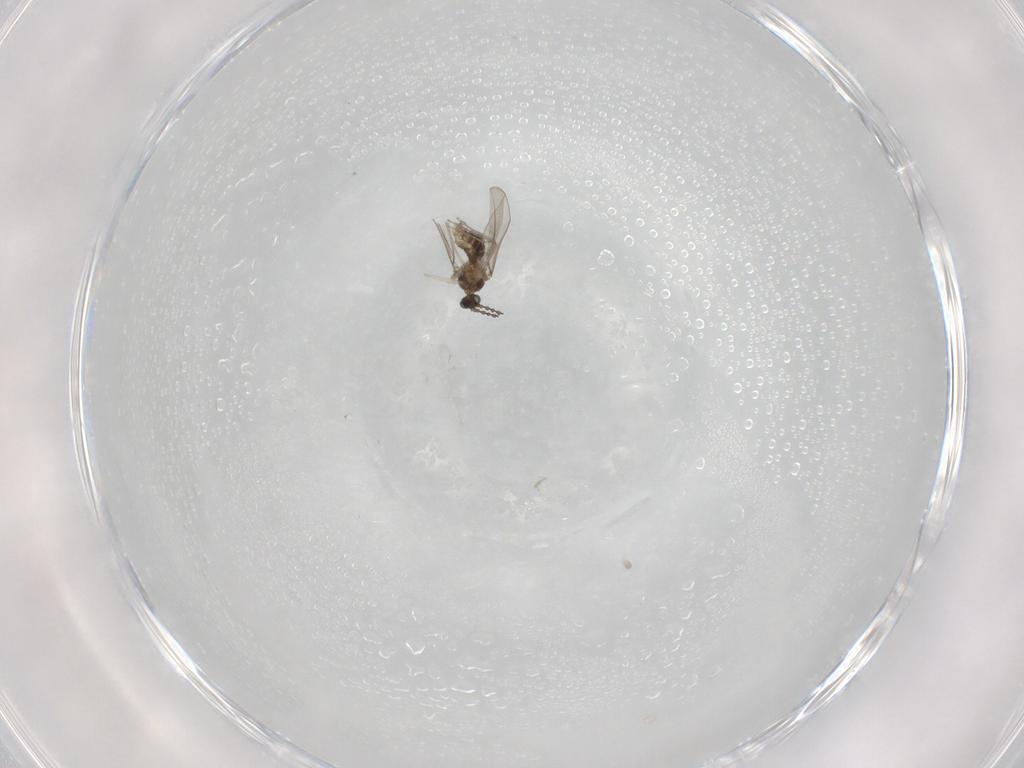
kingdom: Animalia
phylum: Arthropoda
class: Insecta
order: Diptera
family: Cecidomyiidae
